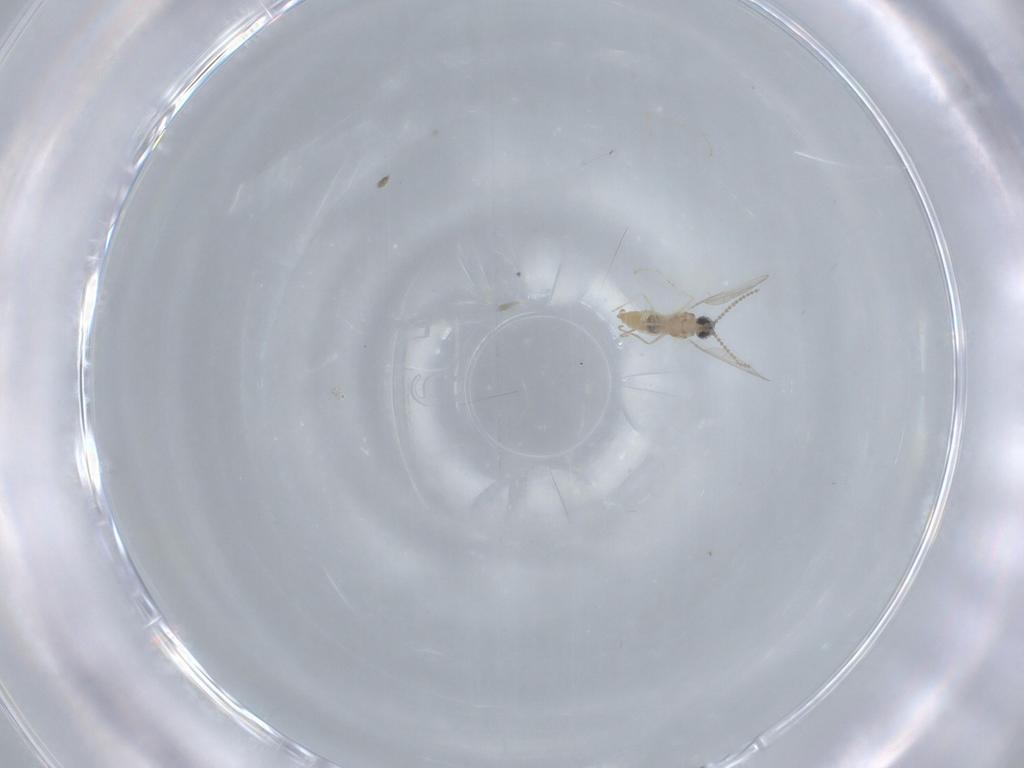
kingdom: Animalia
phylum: Arthropoda
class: Insecta
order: Diptera
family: Cecidomyiidae
